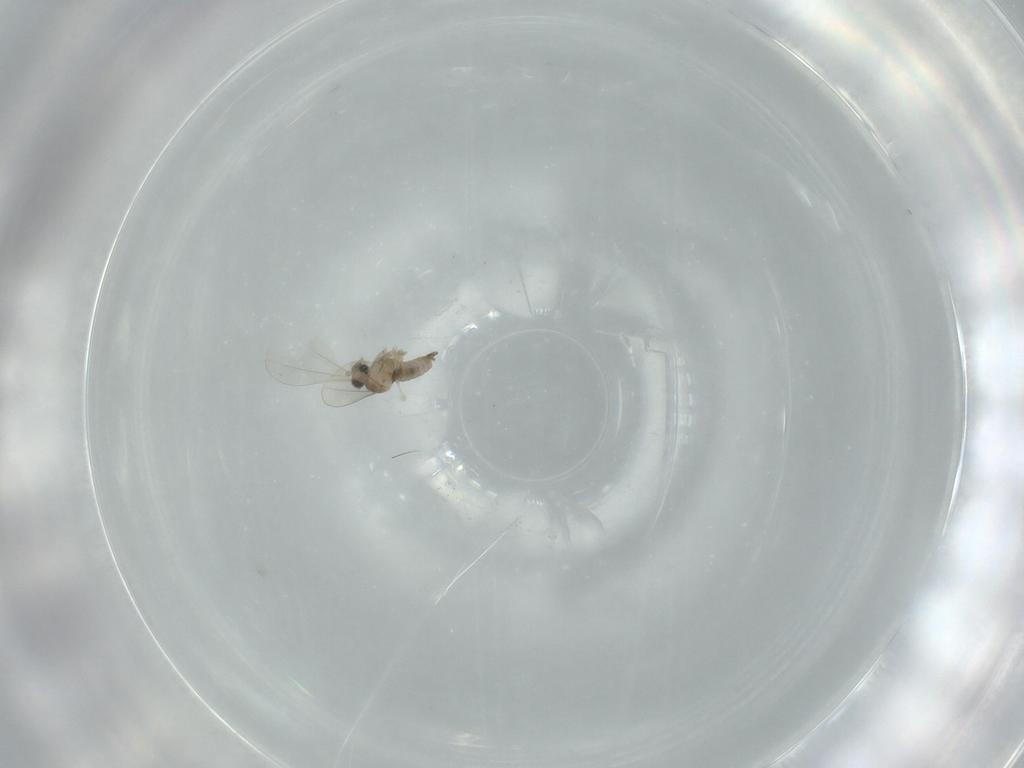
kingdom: Animalia
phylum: Arthropoda
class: Insecta
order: Diptera
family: Cecidomyiidae
